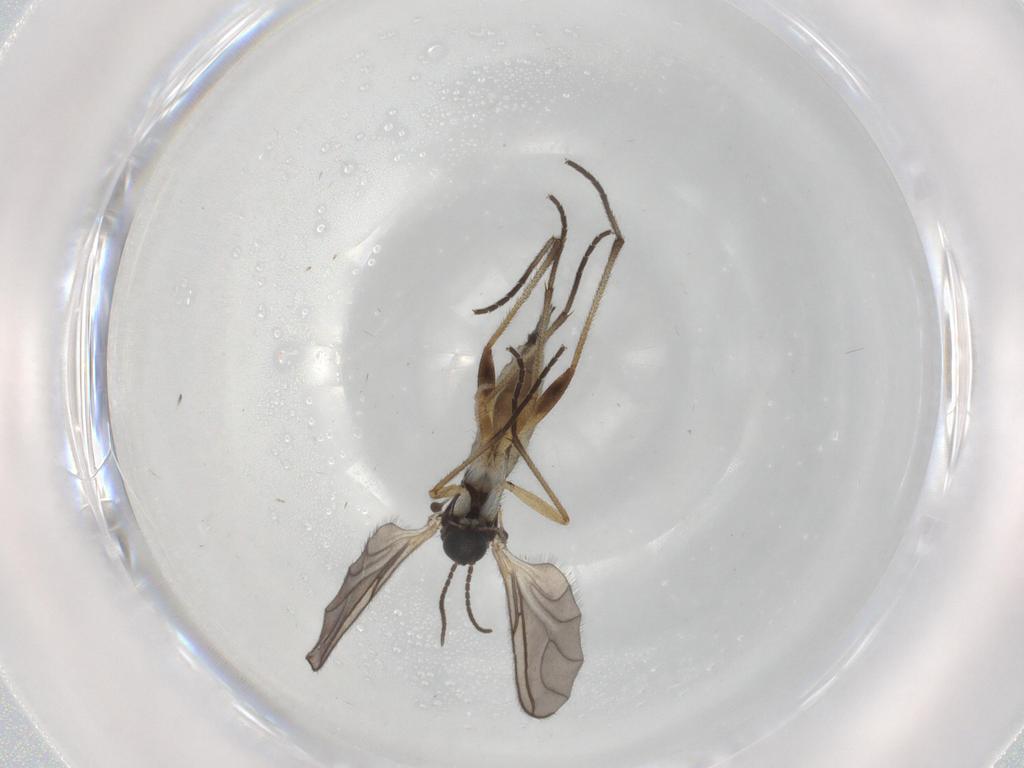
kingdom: Animalia
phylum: Arthropoda
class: Insecta
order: Diptera
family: Sciaridae
